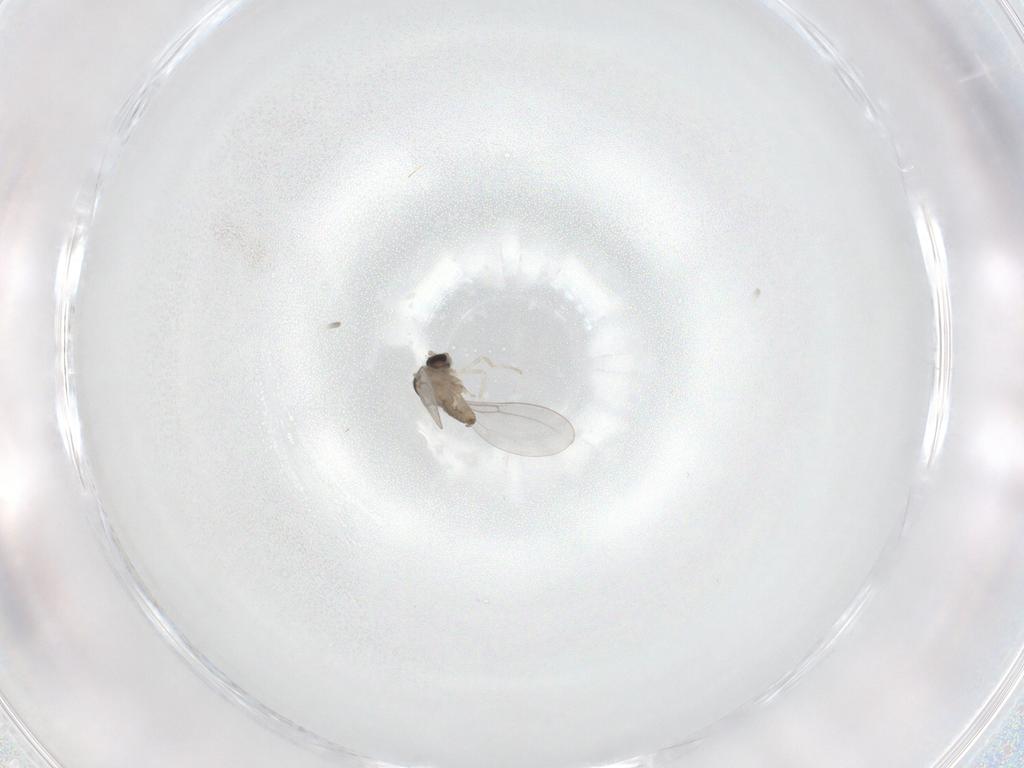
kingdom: Animalia
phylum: Arthropoda
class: Insecta
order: Diptera
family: Cecidomyiidae
